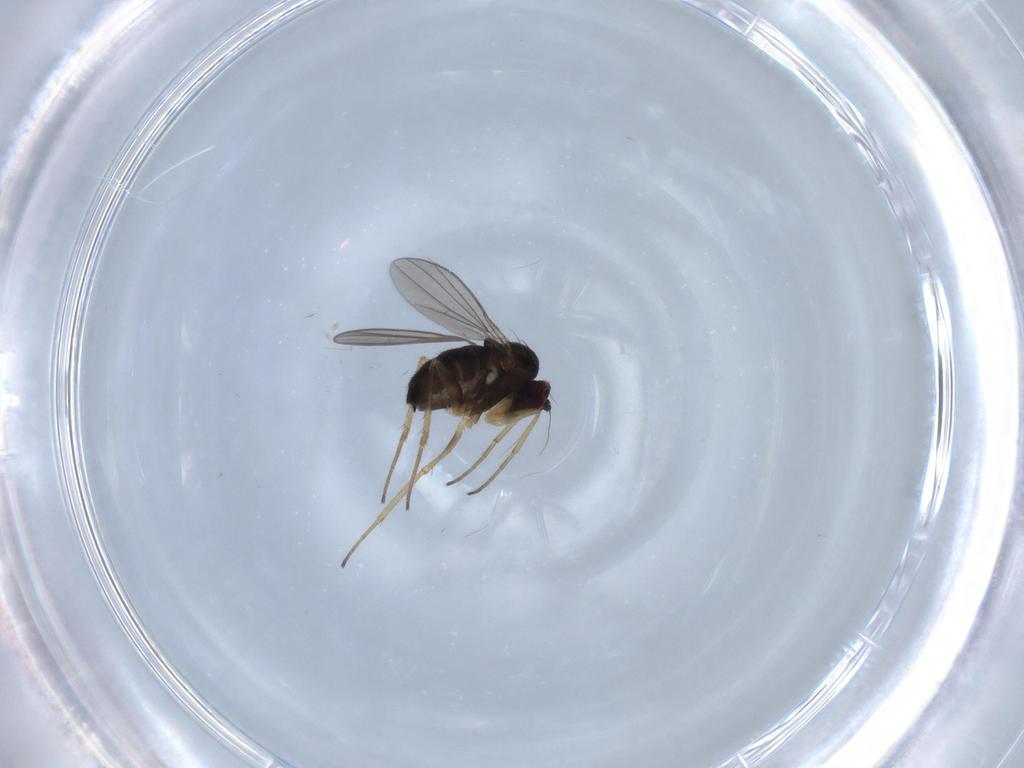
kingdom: Animalia
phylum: Arthropoda
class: Insecta
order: Diptera
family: Dolichopodidae
